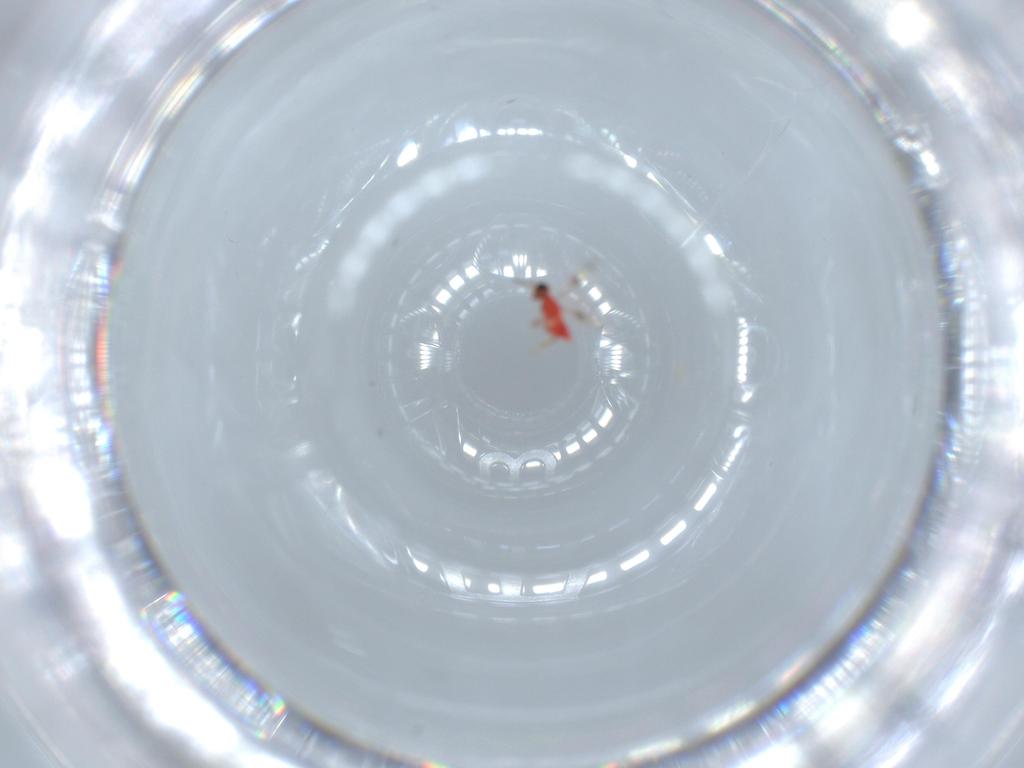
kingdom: Animalia
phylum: Arthropoda
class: Insecta
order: Hymenoptera
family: Trichogrammatidae
